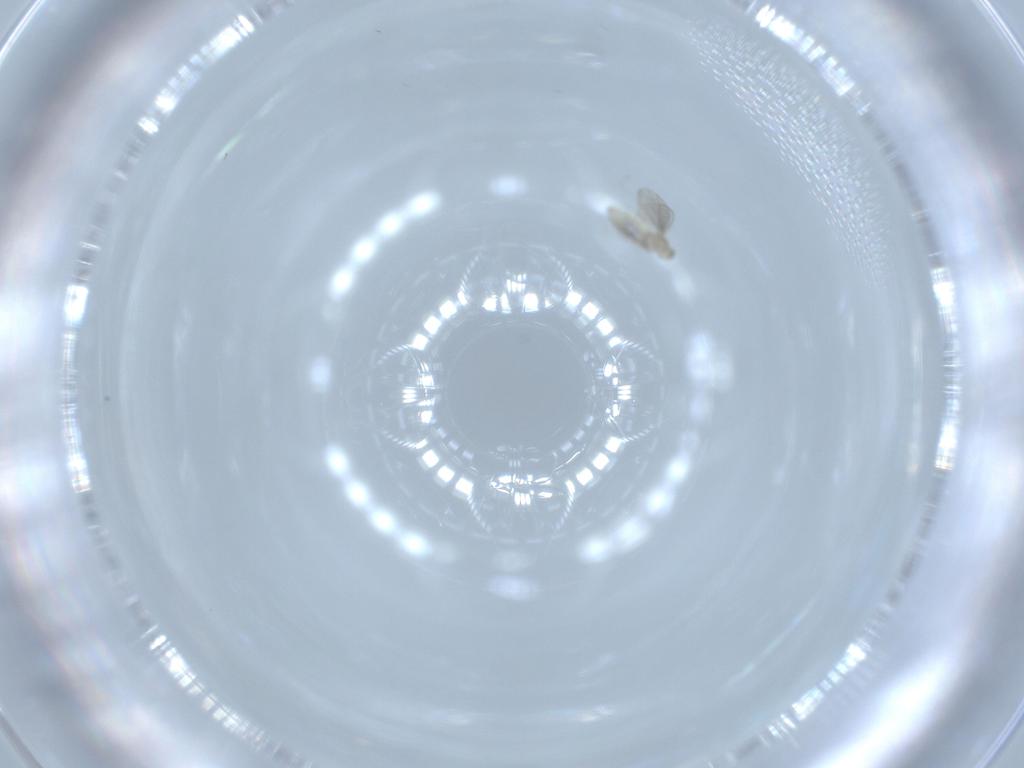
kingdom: Animalia
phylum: Arthropoda
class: Insecta
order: Diptera
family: Cecidomyiidae
